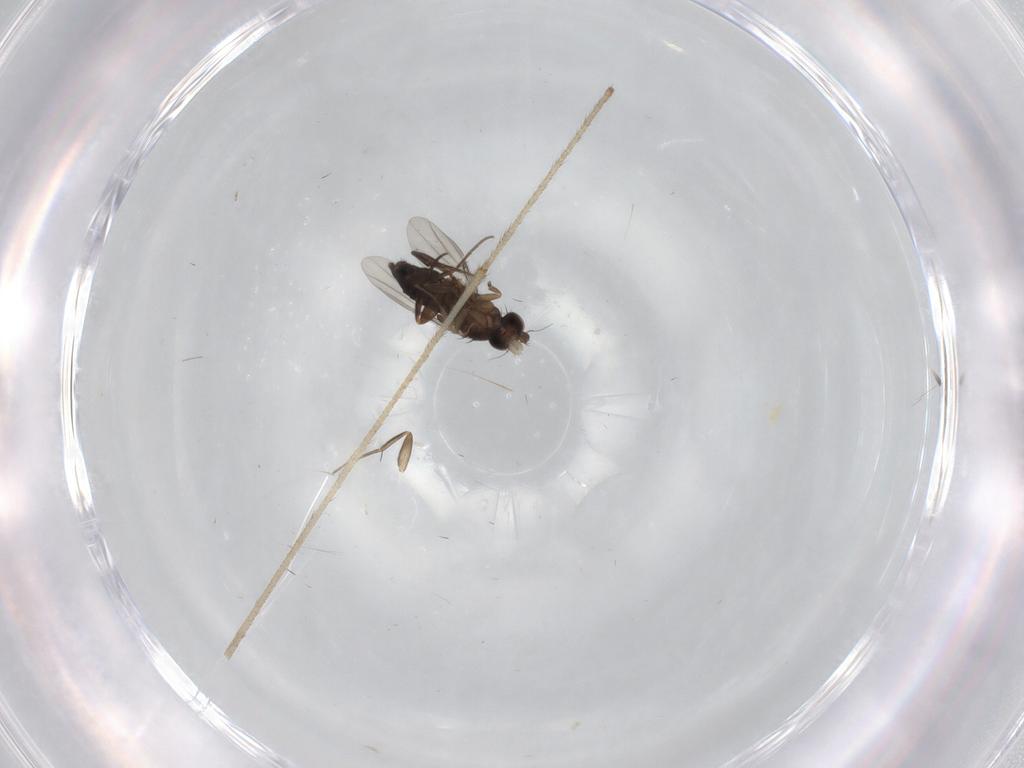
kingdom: Animalia
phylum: Arthropoda
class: Insecta
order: Diptera
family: Phoridae
